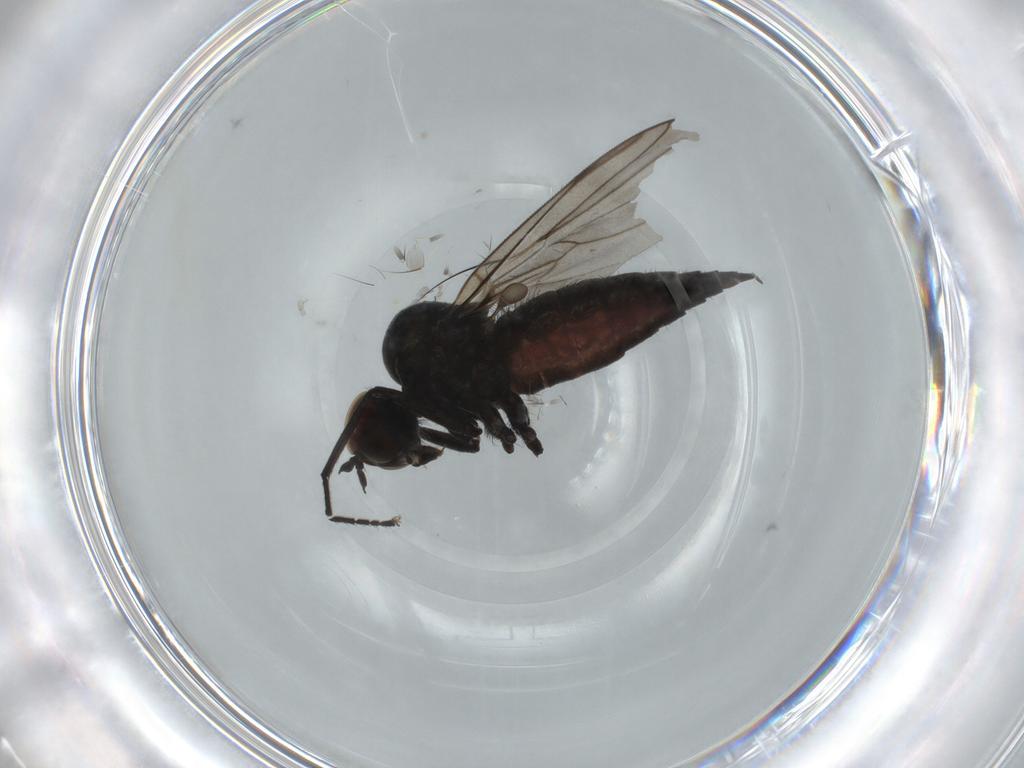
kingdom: Animalia
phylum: Arthropoda
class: Insecta
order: Diptera
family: Hybotidae
